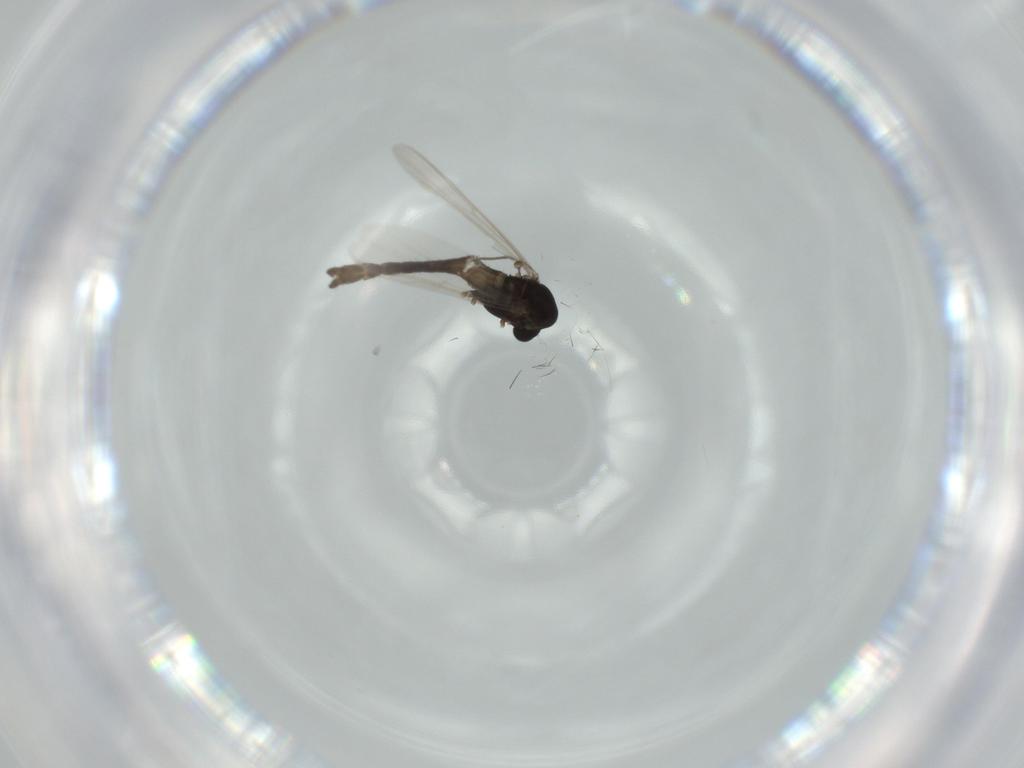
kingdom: Animalia
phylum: Arthropoda
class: Insecta
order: Diptera
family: Chironomidae
